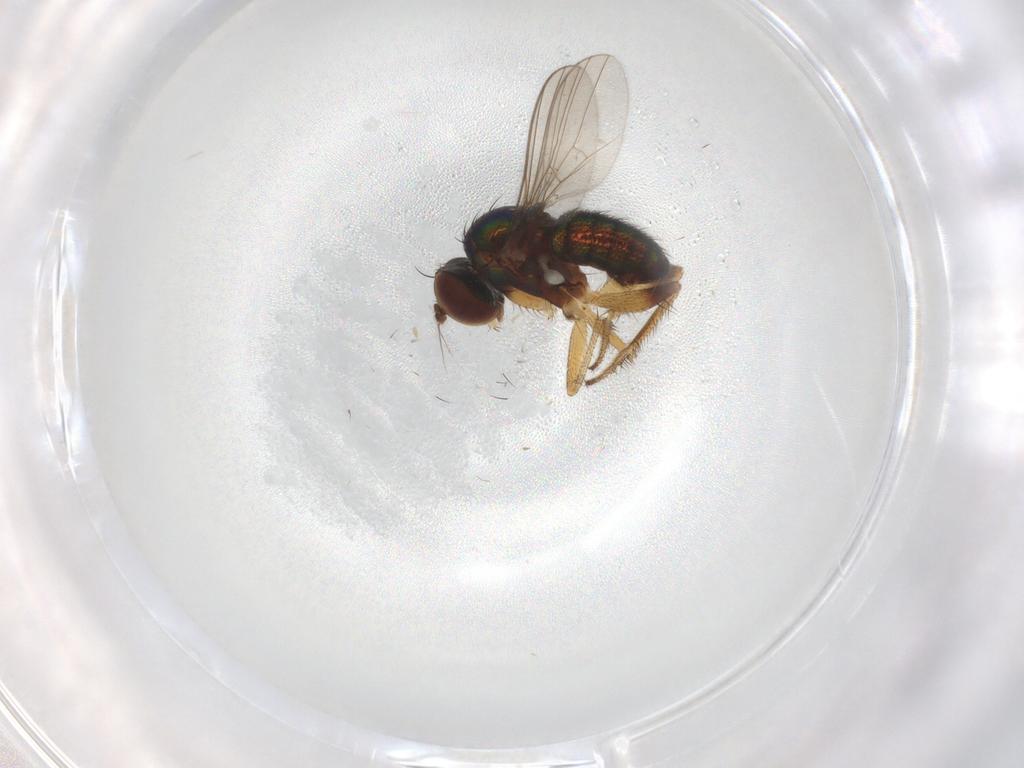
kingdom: Animalia
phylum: Arthropoda
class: Insecta
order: Diptera
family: Dolichopodidae
